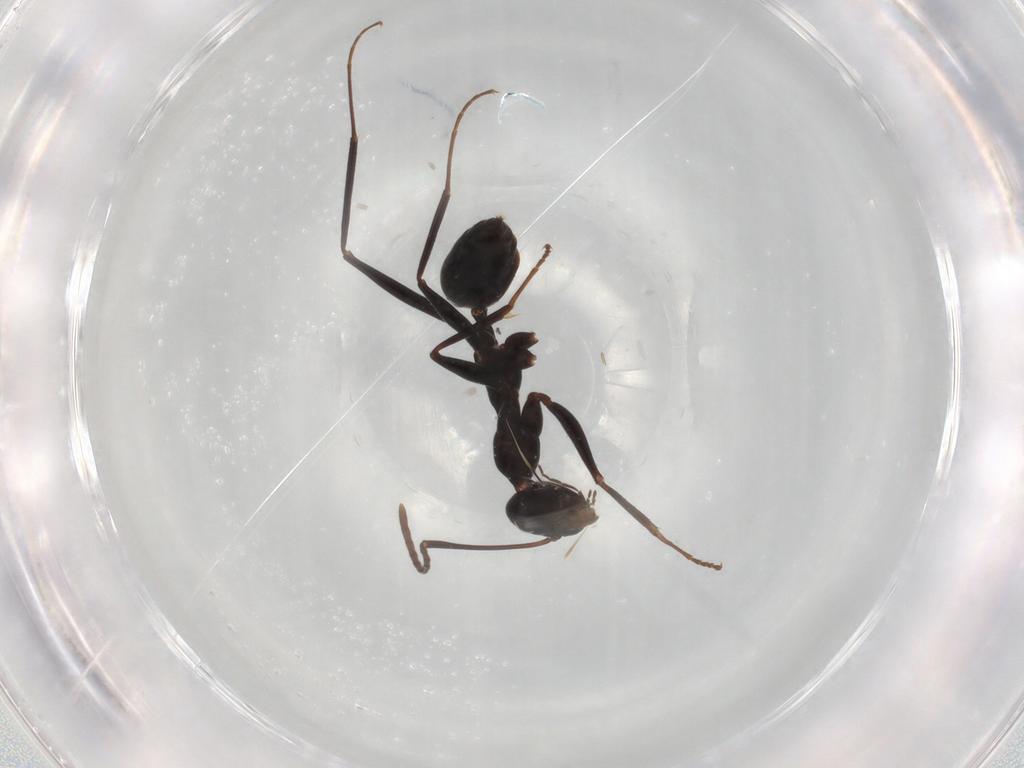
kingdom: Animalia
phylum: Arthropoda
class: Insecta
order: Hymenoptera
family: Formicidae
